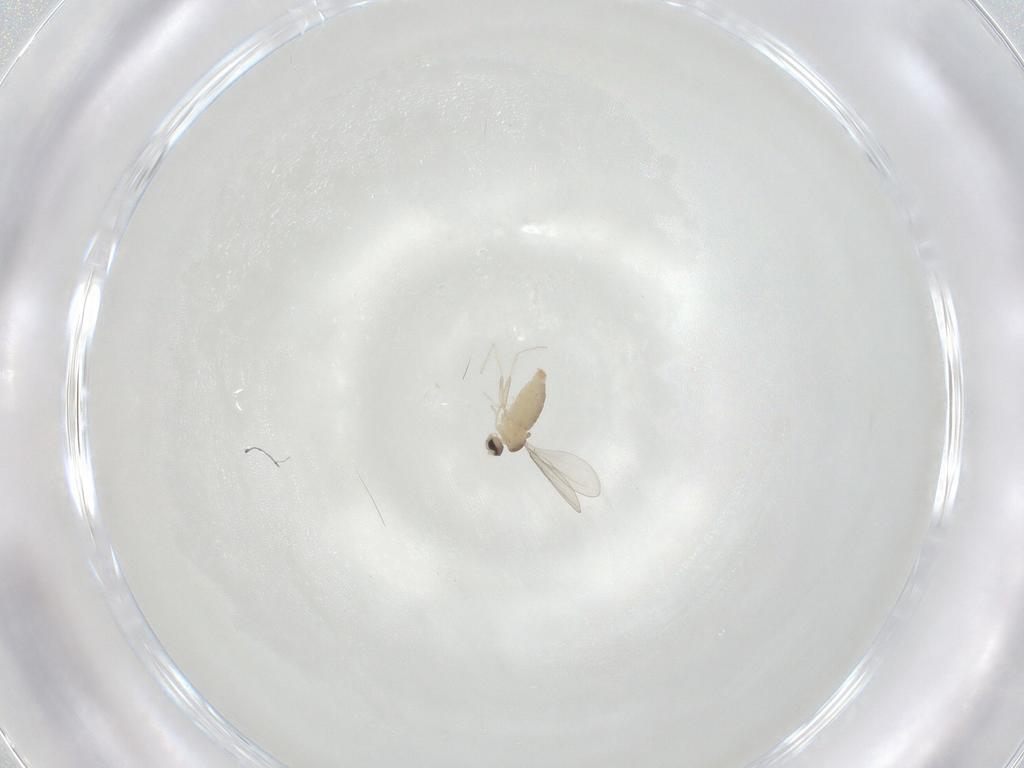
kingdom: Animalia
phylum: Arthropoda
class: Insecta
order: Diptera
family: Cecidomyiidae
